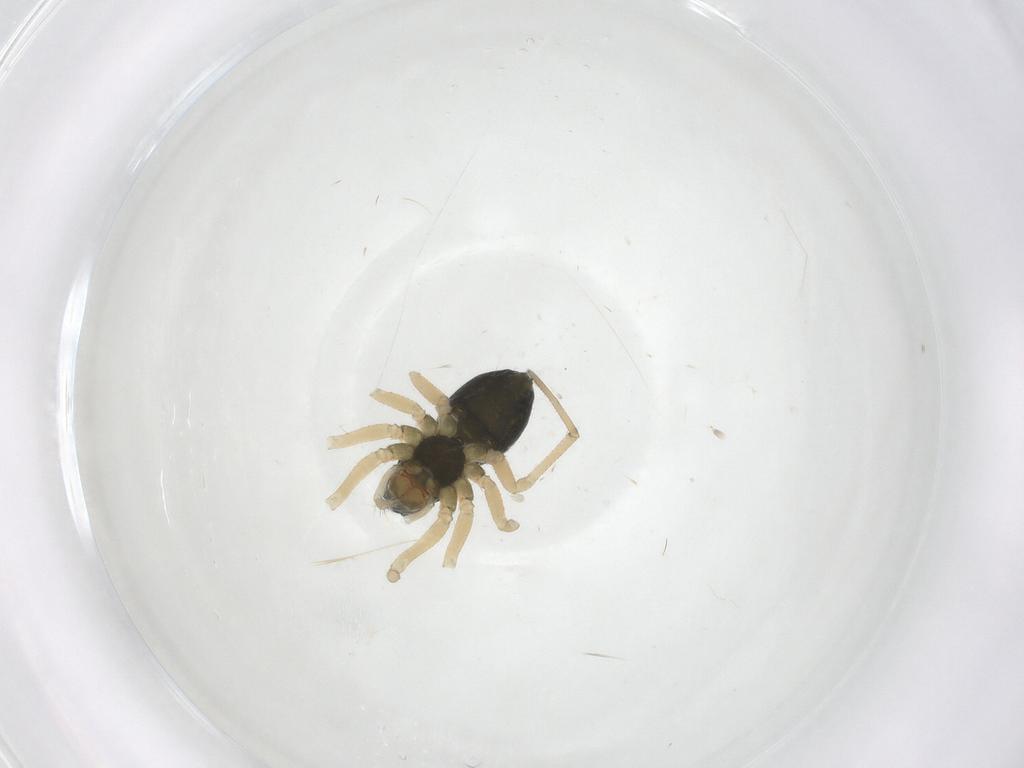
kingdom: Animalia
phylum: Arthropoda
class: Arachnida
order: Araneae
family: Linyphiidae
